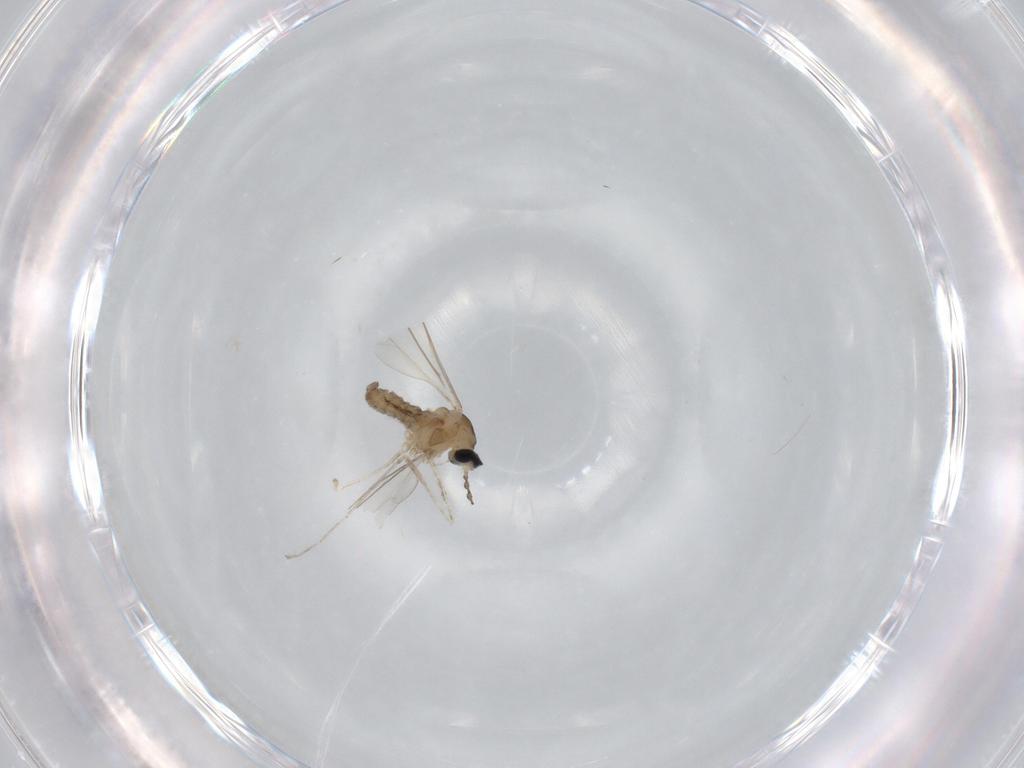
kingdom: Animalia
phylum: Arthropoda
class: Insecta
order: Diptera
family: Cecidomyiidae
